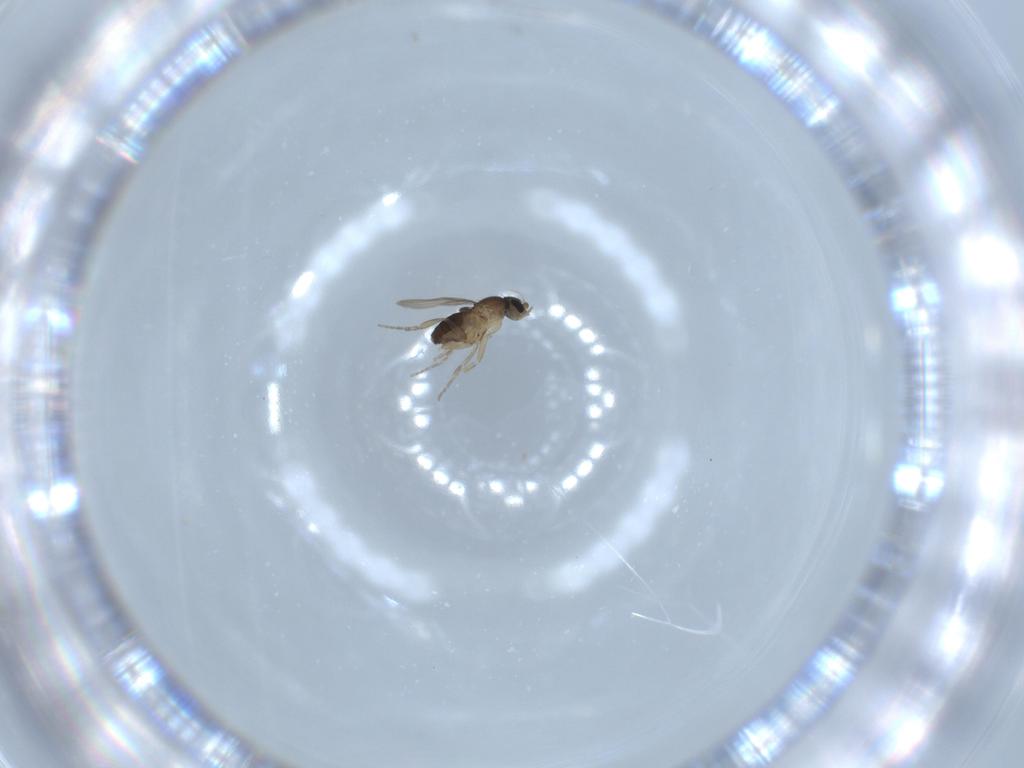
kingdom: Animalia
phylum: Arthropoda
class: Insecta
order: Diptera
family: Phoridae
